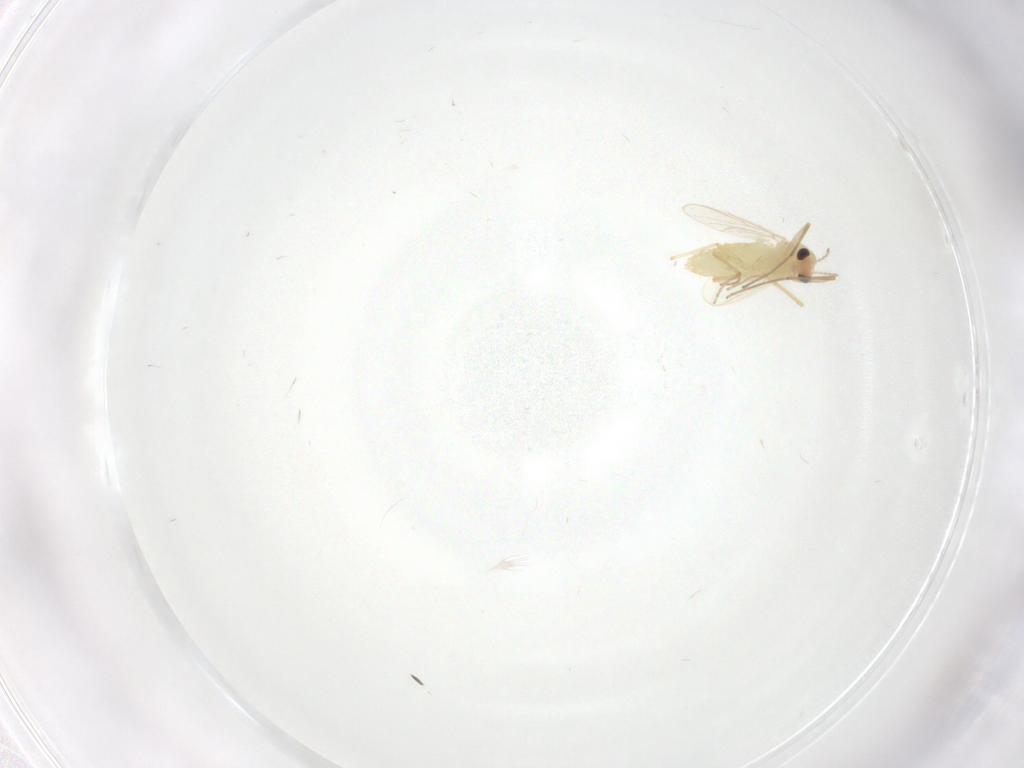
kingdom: Animalia
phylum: Arthropoda
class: Insecta
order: Diptera
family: Chironomidae
